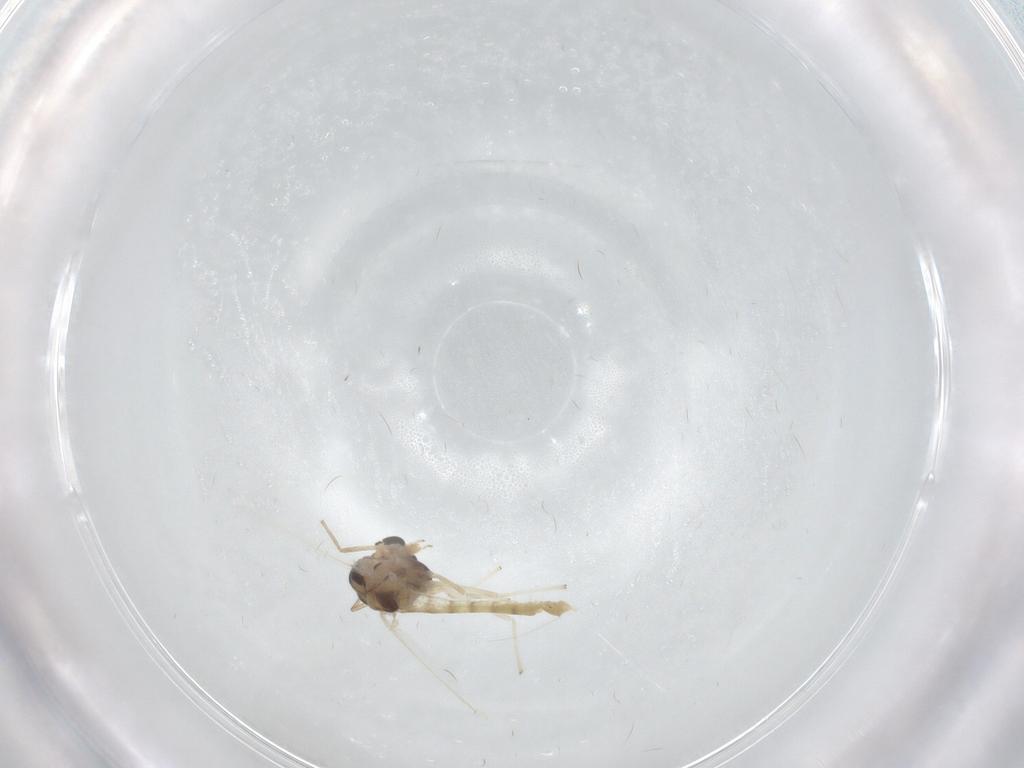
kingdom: Animalia
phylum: Arthropoda
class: Insecta
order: Diptera
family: Chironomidae
